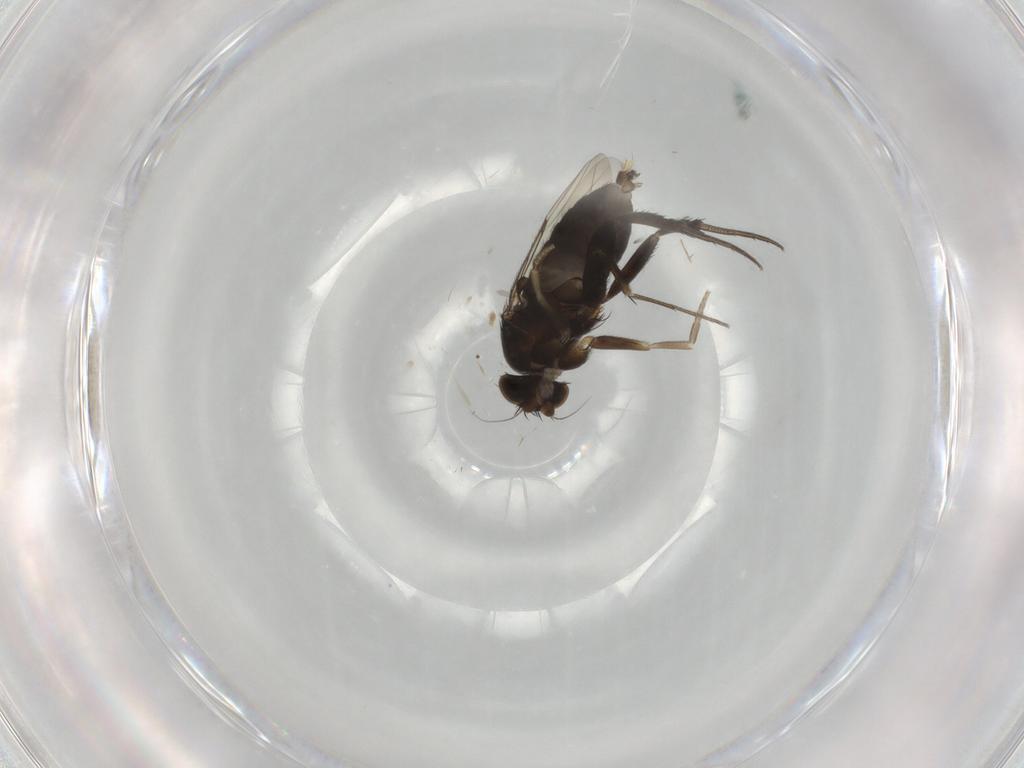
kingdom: Animalia
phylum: Arthropoda
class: Insecta
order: Diptera
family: Phoridae
